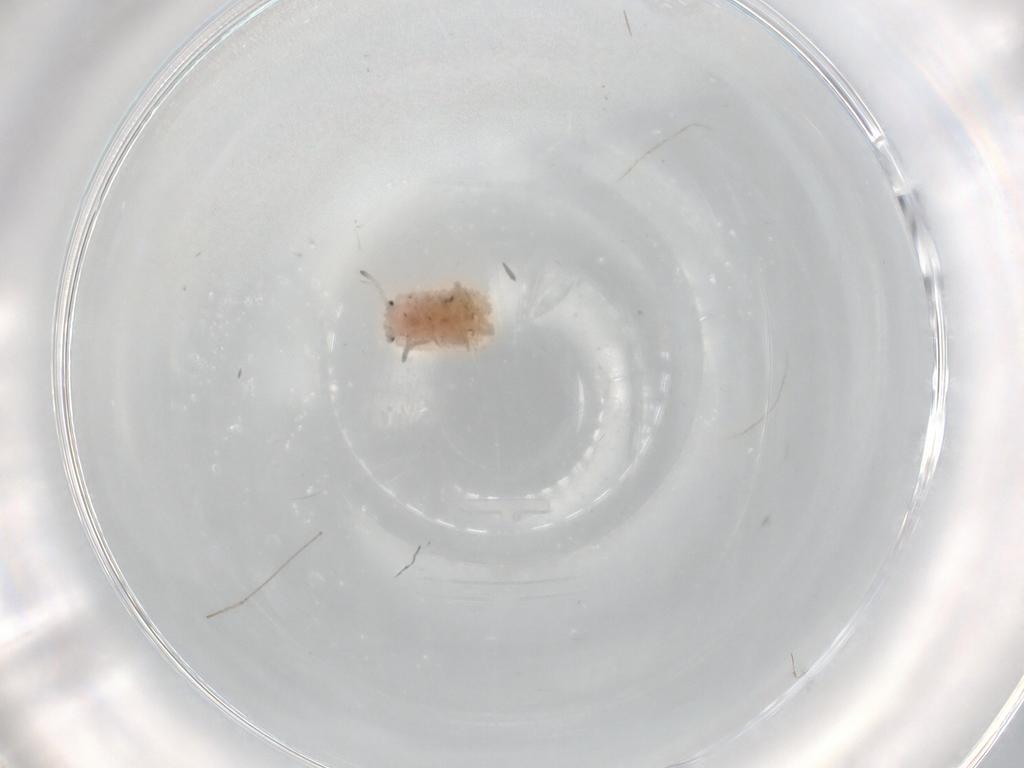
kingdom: Animalia
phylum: Arthropoda
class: Insecta
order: Hemiptera
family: Coccoidea_incertae_sedis
